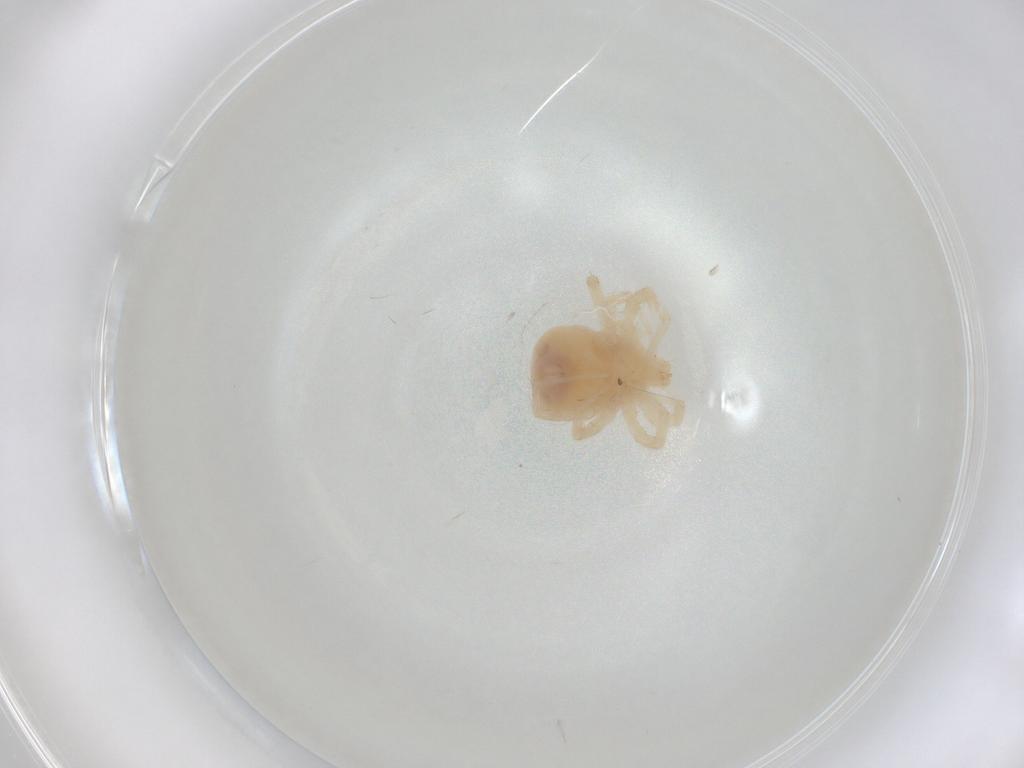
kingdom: Animalia
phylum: Arthropoda
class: Arachnida
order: Trombidiformes
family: Anystidae
